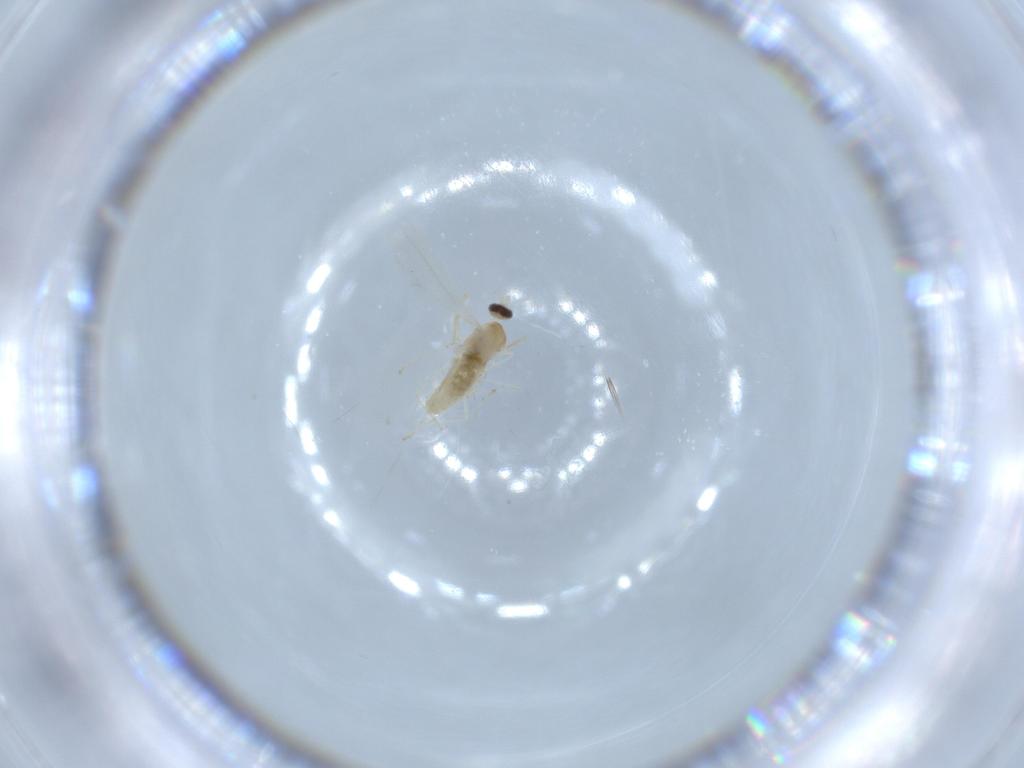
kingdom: Animalia
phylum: Arthropoda
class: Insecta
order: Diptera
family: Cecidomyiidae
